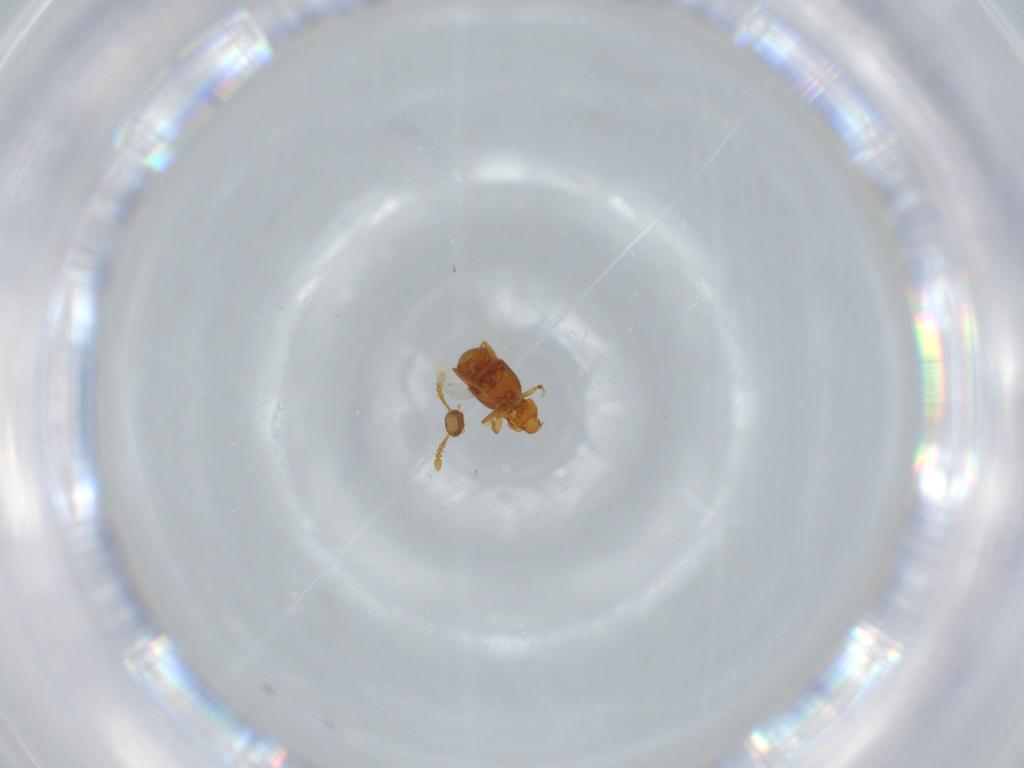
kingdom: Animalia
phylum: Arthropoda
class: Insecta
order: Coleoptera
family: Staphylinidae
